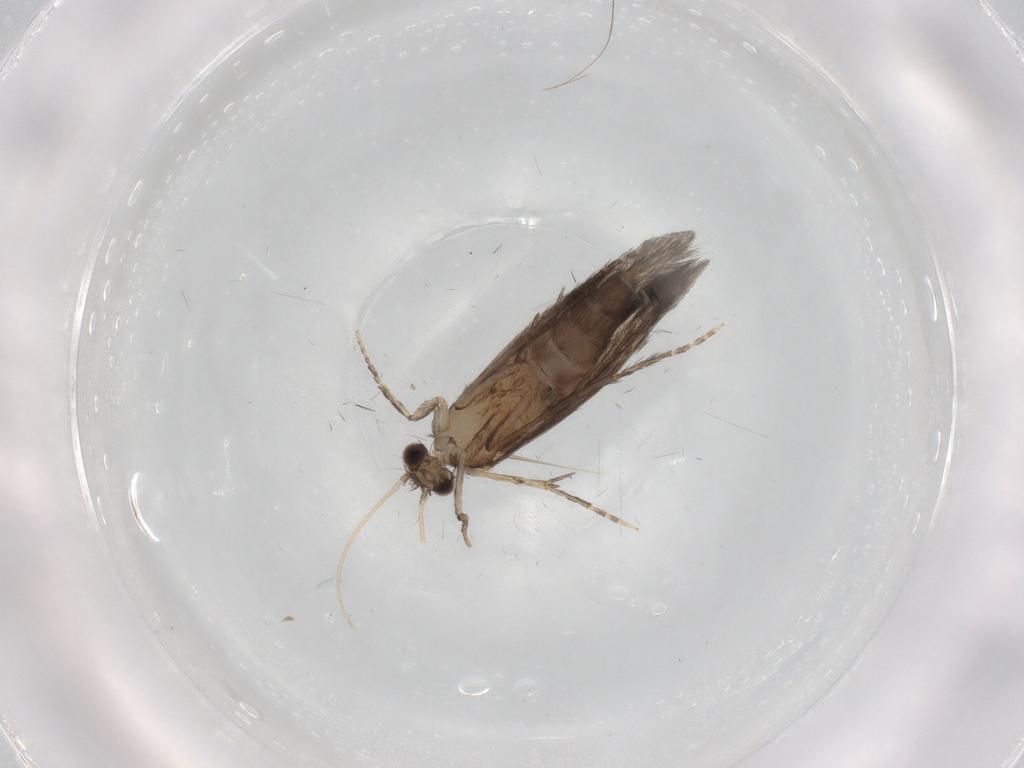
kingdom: Animalia
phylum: Arthropoda
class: Insecta
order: Trichoptera
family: Hydroptilidae
